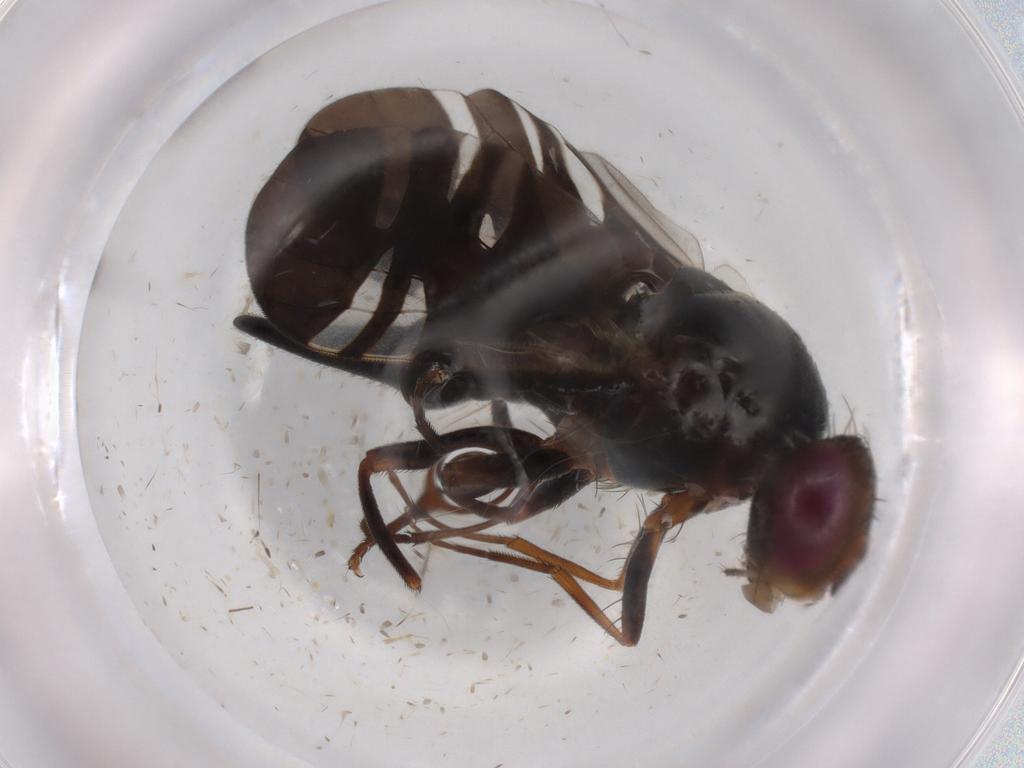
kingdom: Animalia
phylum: Arthropoda
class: Insecta
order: Diptera
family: Tephritidae
